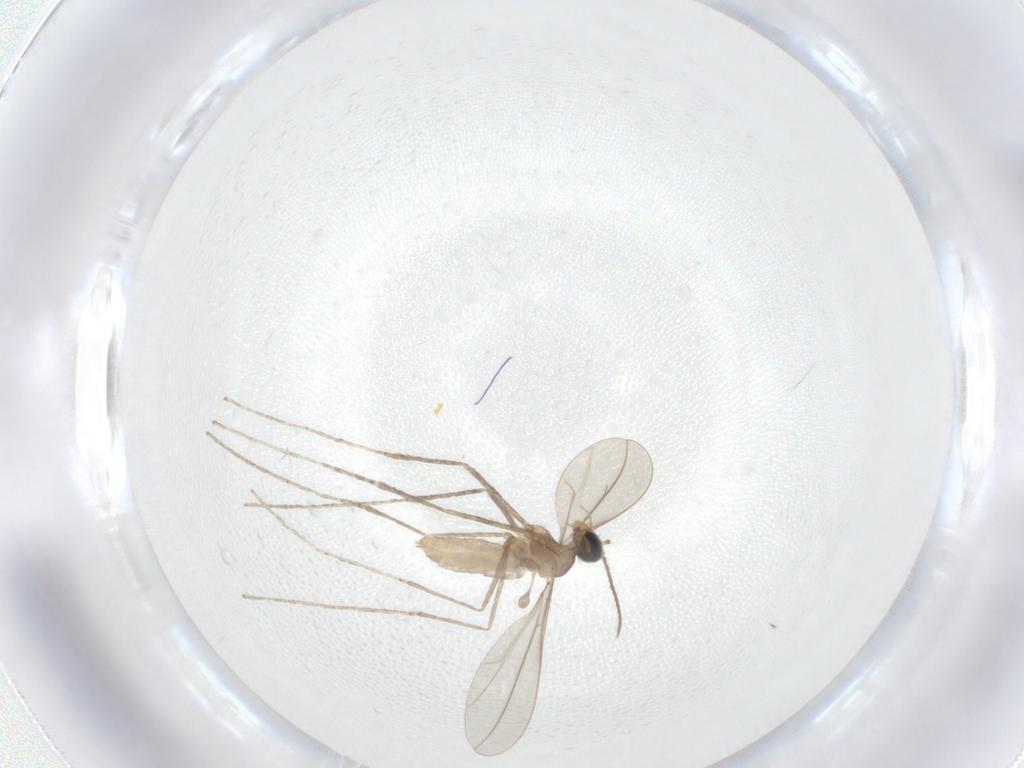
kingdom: Animalia
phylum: Arthropoda
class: Insecta
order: Diptera
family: Cecidomyiidae
